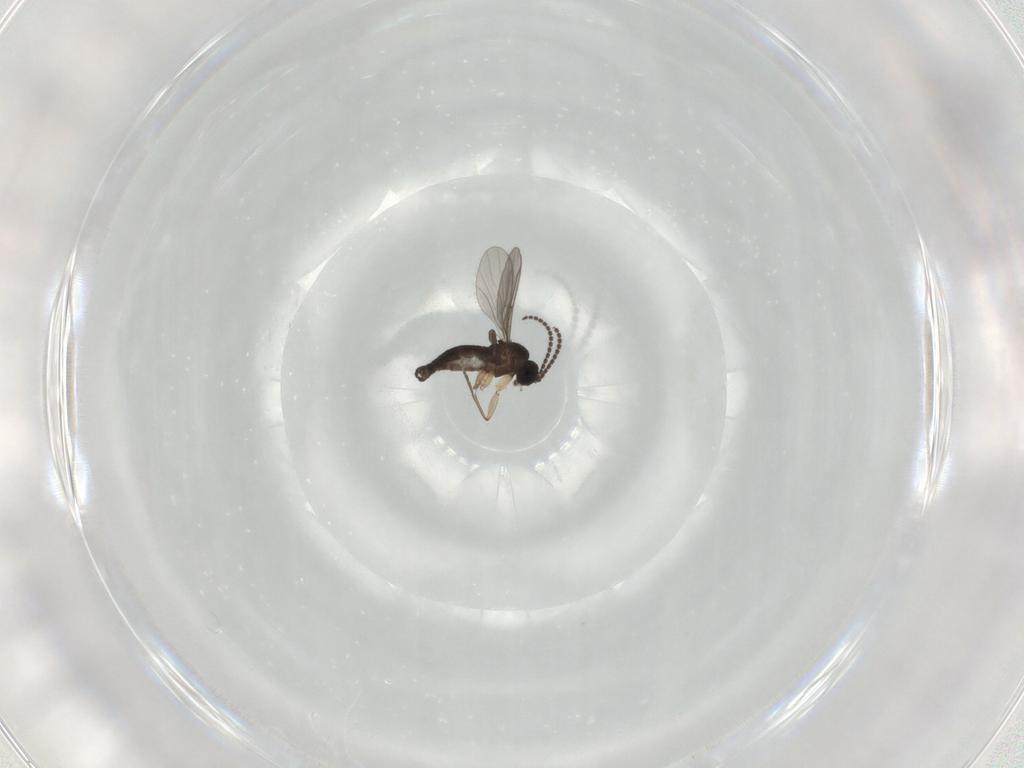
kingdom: Animalia
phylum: Arthropoda
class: Insecta
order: Diptera
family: Sciaridae
